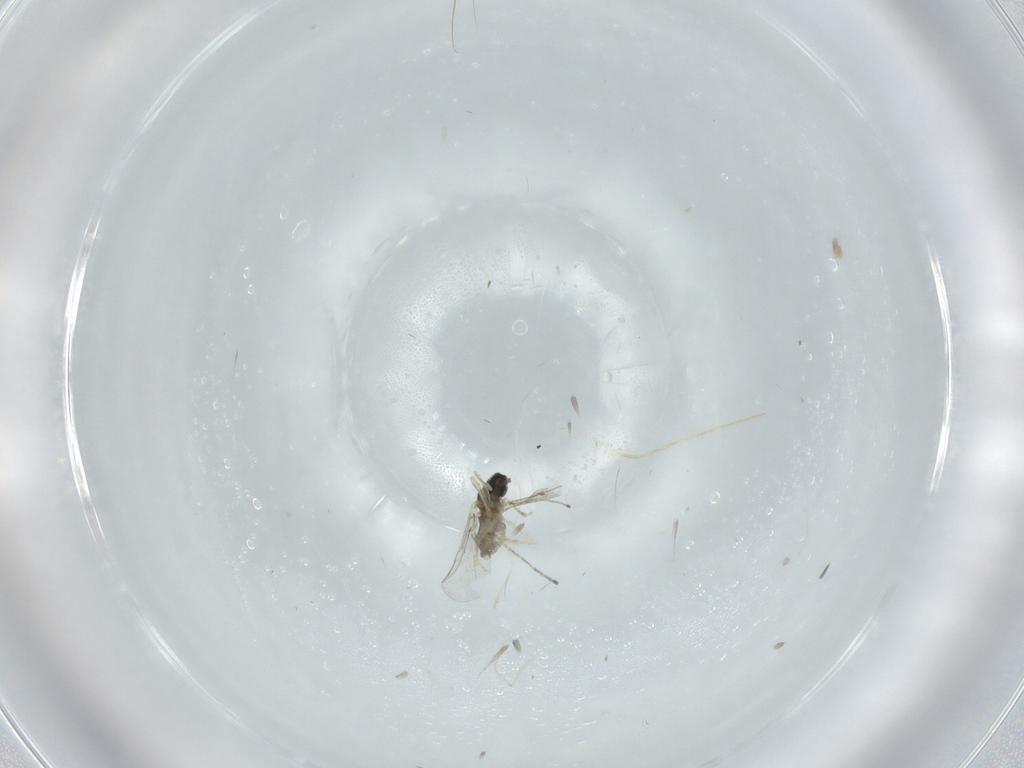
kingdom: Animalia
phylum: Arthropoda
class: Insecta
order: Diptera
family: Cecidomyiidae
